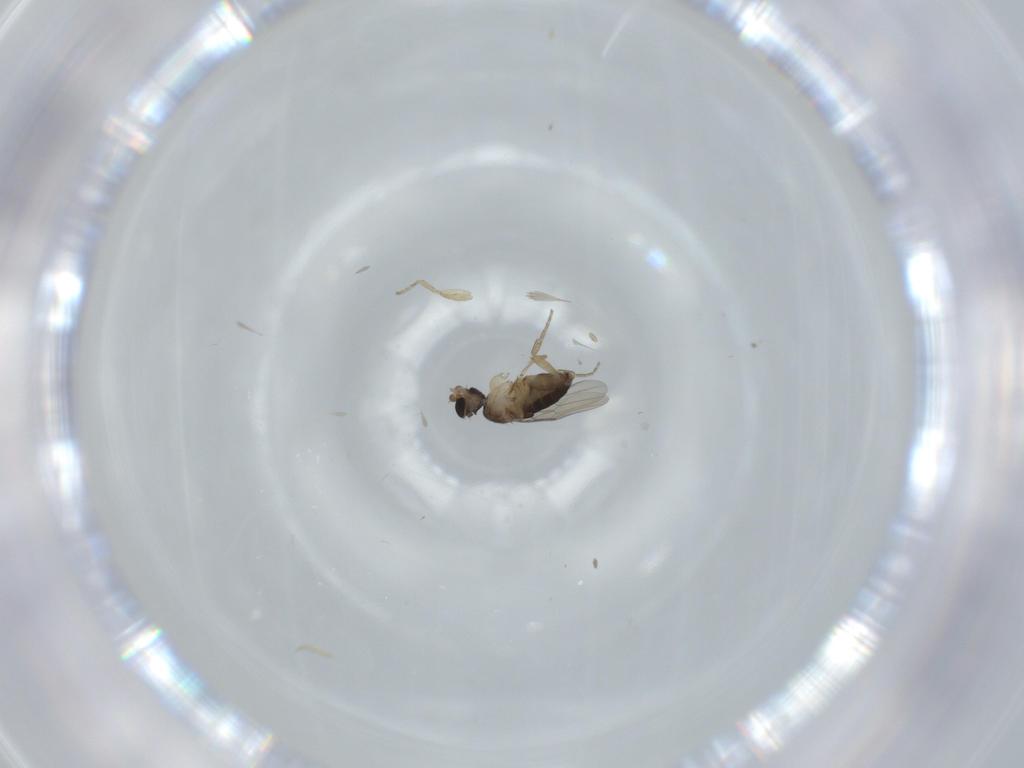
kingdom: Animalia
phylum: Arthropoda
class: Insecta
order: Diptera
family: Phoridae
